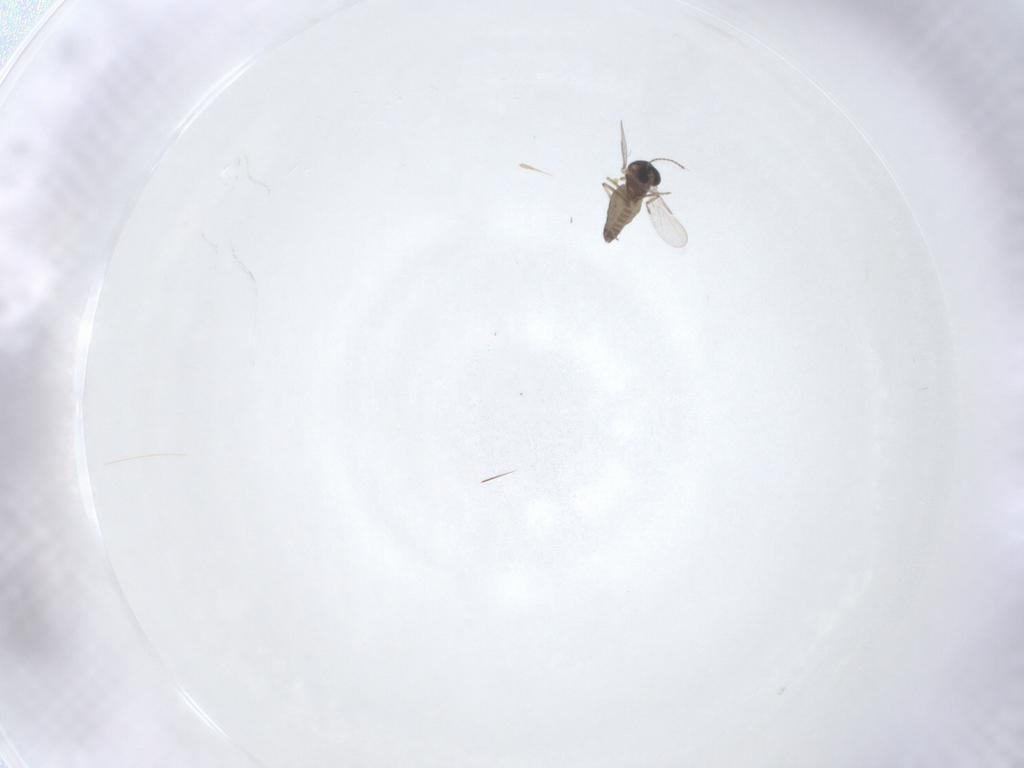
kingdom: Animalia
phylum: Arthropoda
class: Insecta
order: Diptera
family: Ceratopogonidae
